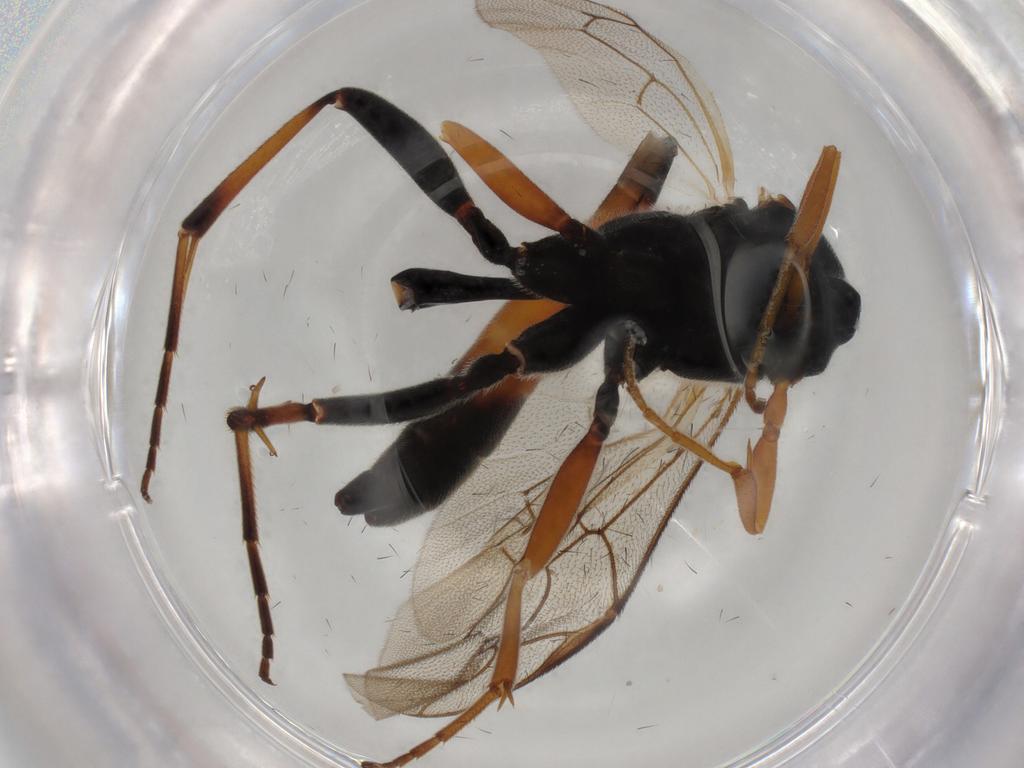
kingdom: Animalia
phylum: Arthropoda
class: Insecta
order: Hymenoptera
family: Ichneumonidae
